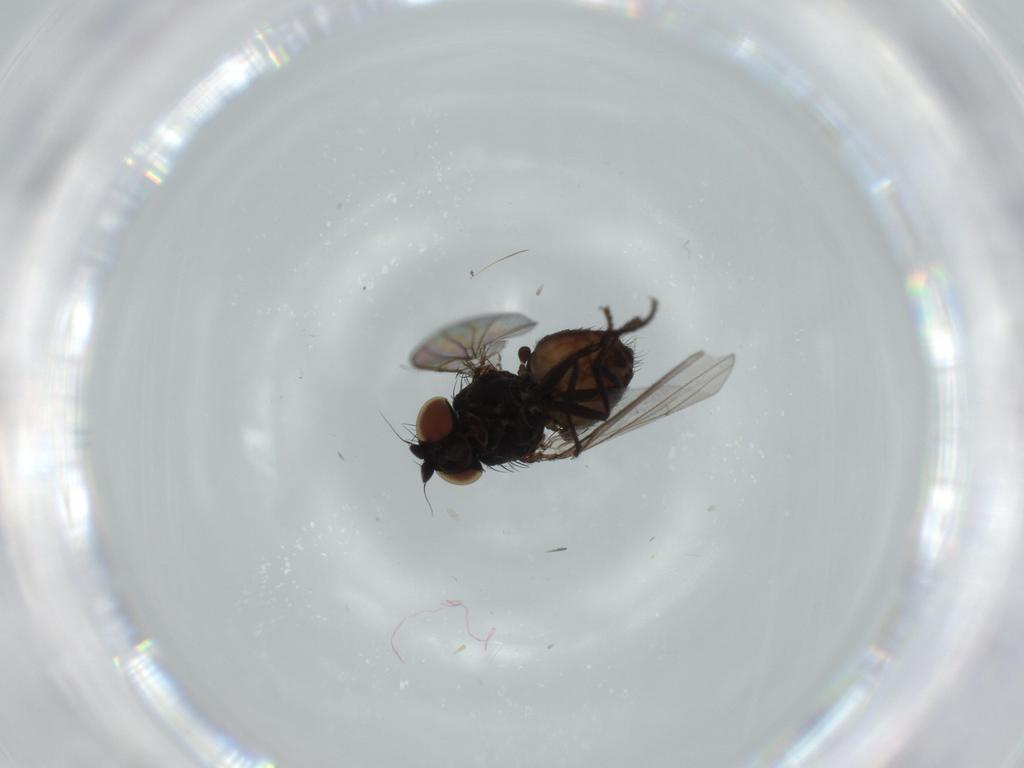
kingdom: Animalia
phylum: Arthropoda
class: Insecta
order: Diptera
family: Milichiidae
